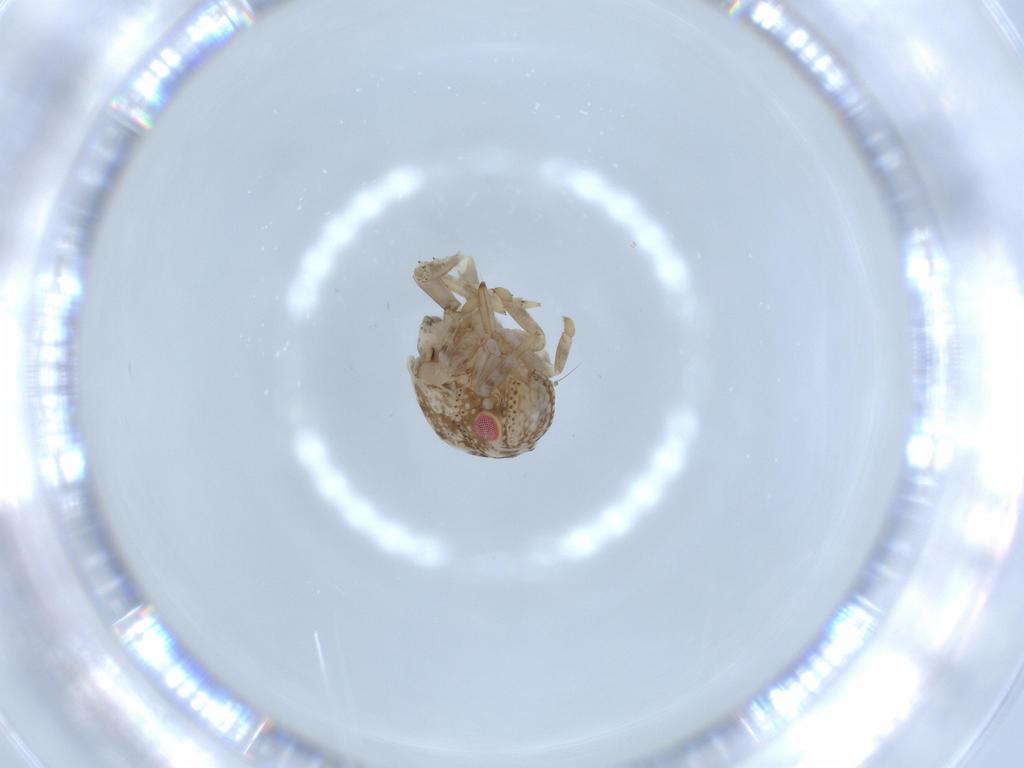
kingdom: Animalia
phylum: Arthropoda
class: Insecta
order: Hemiptera
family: Acanaloniidae
